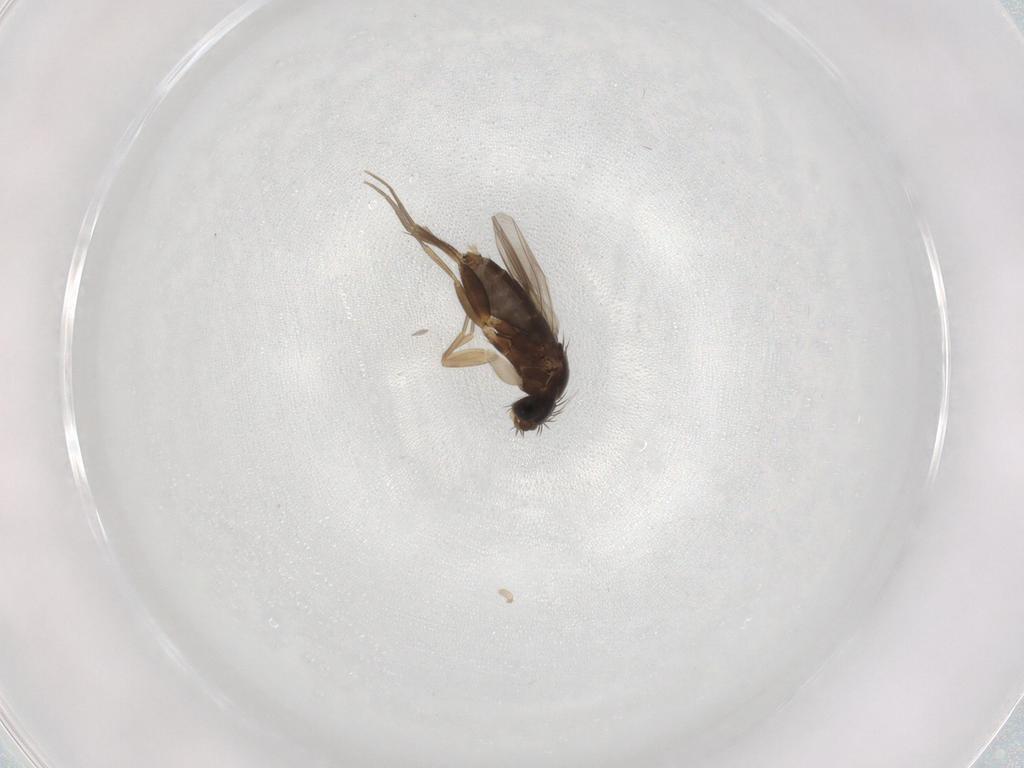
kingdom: Animalia
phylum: Arthropoda
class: Insecta
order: Diptera
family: Phoridae
